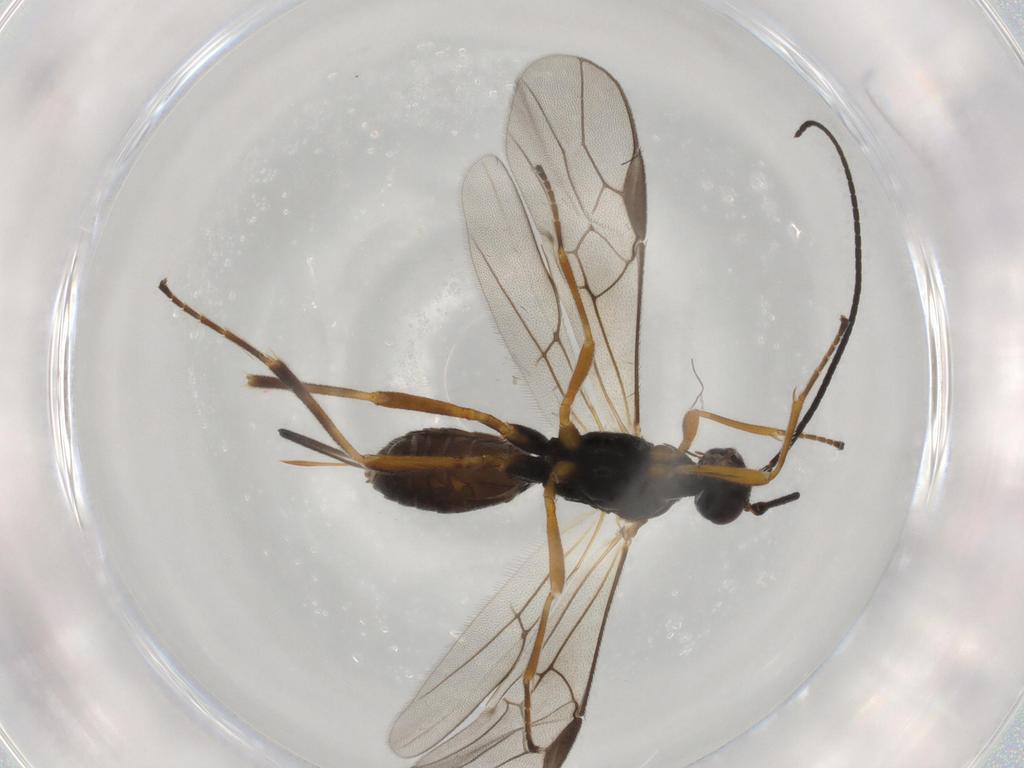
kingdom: Animalia
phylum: Arthropoda
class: Insecta
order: Hymenoptera
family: Braconidae
